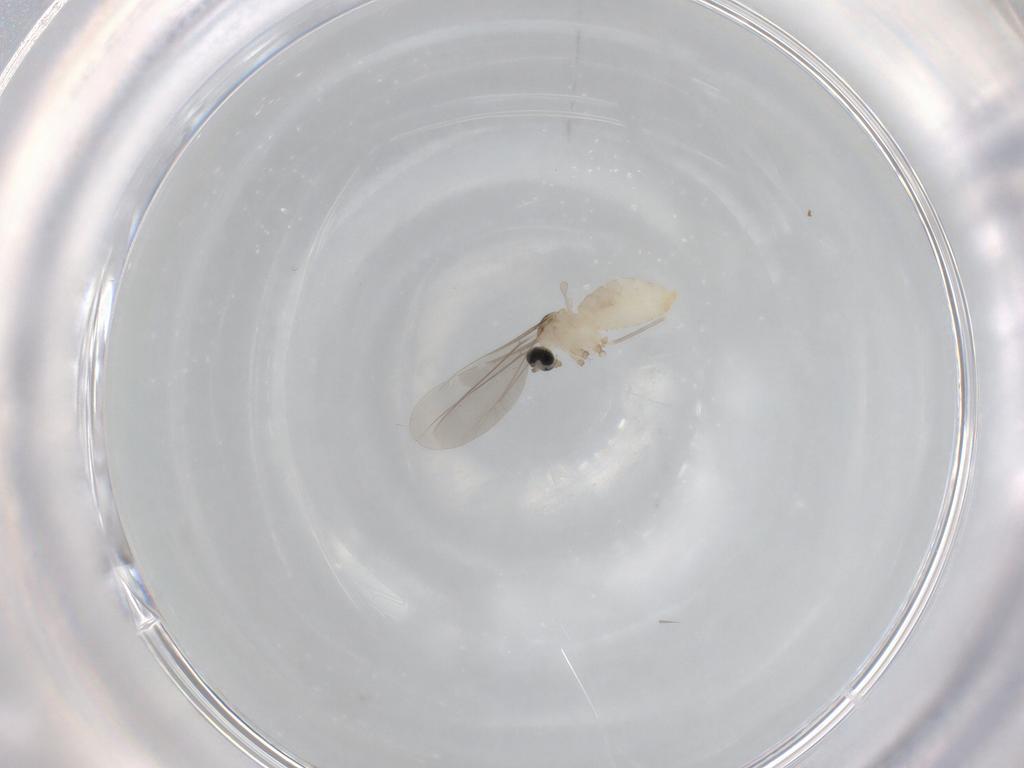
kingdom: Animalia
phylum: Arthropoda
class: Insecta
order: Diptera
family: Cecidomyiidae
